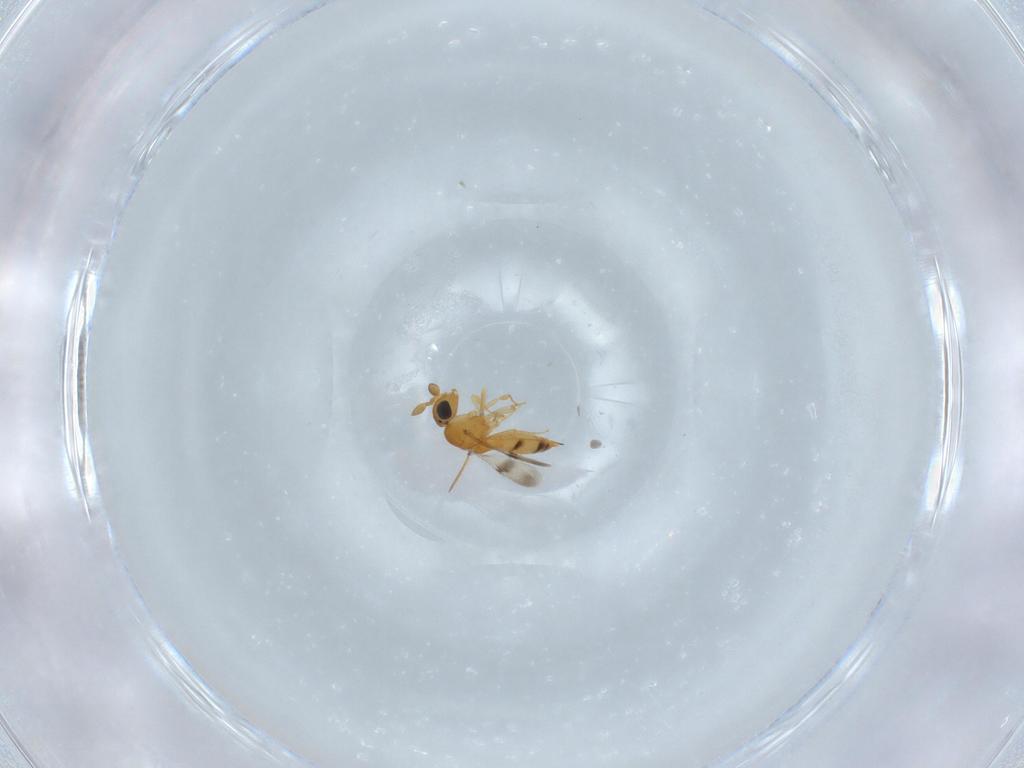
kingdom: Animalia
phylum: Arthropoda
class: Insecta
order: Hymenoptera
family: Scelionidae
